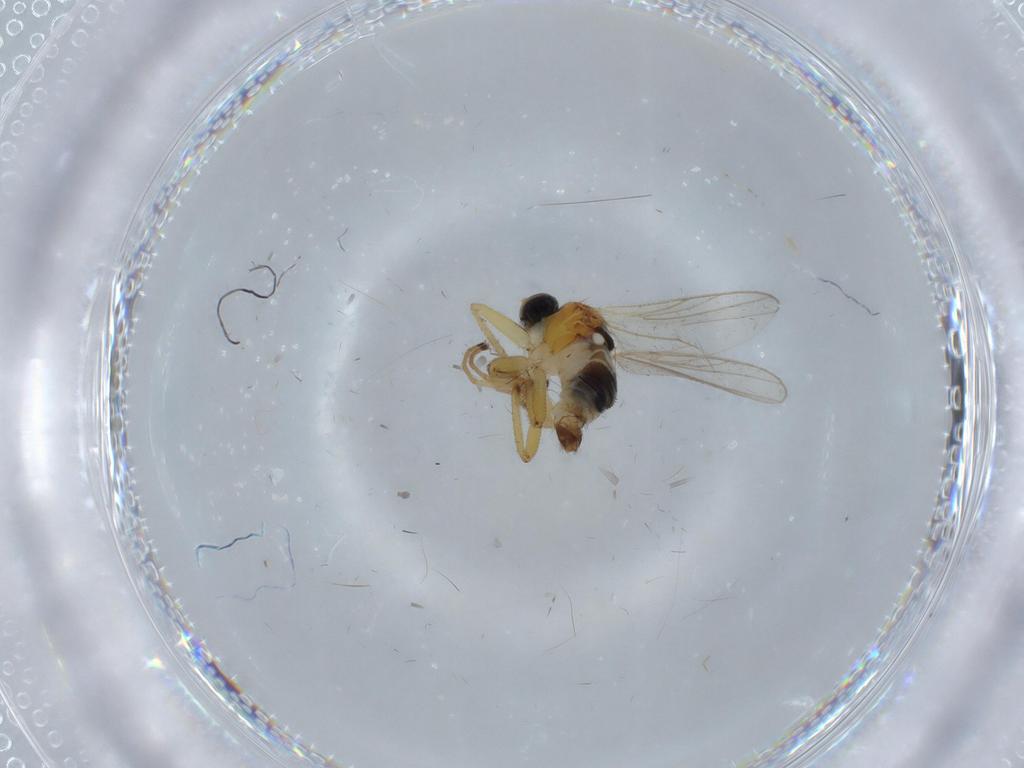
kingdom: Animalia
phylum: Arthropoda
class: Insecta
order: Diptera
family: Hybotidae
